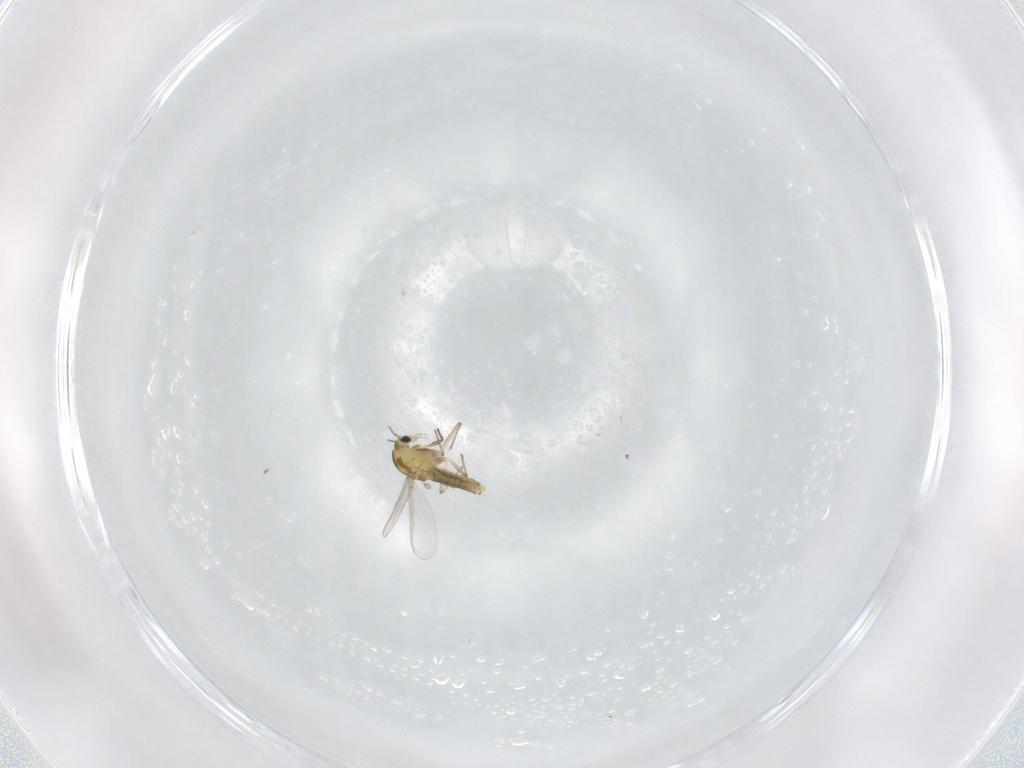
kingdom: Animalia
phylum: Arthropoda
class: Insecta
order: Diptera
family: Chironomidae
